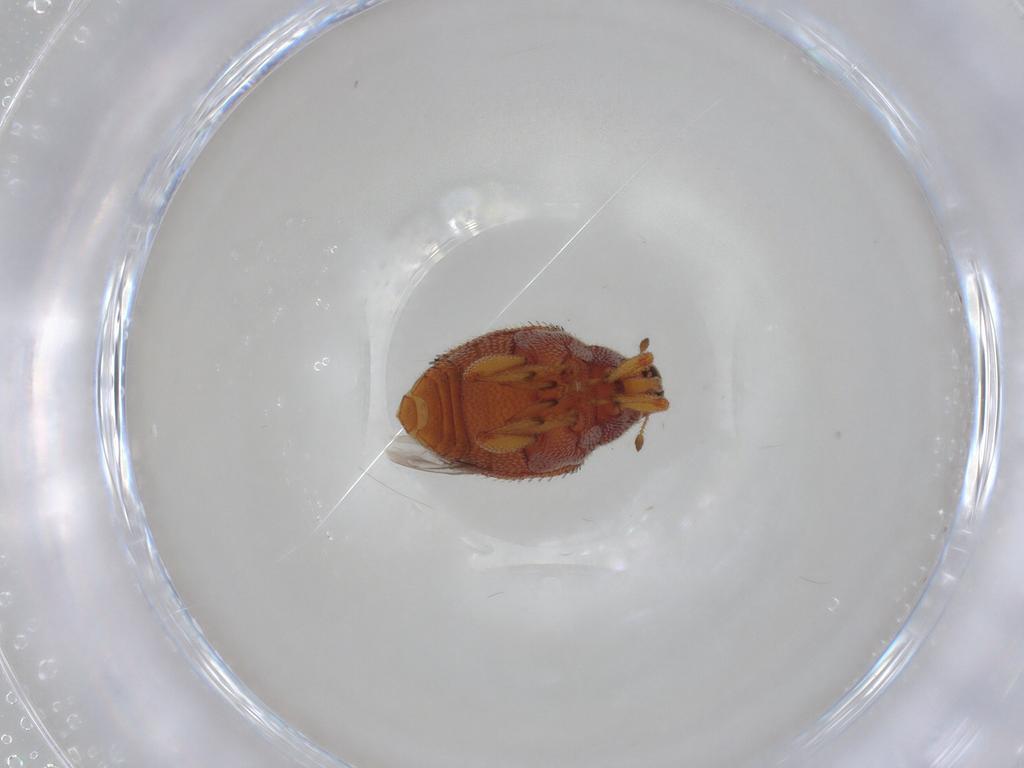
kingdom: Animalia
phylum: Arthropoda
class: Insecta
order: Coleoptera
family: Curculionidae
